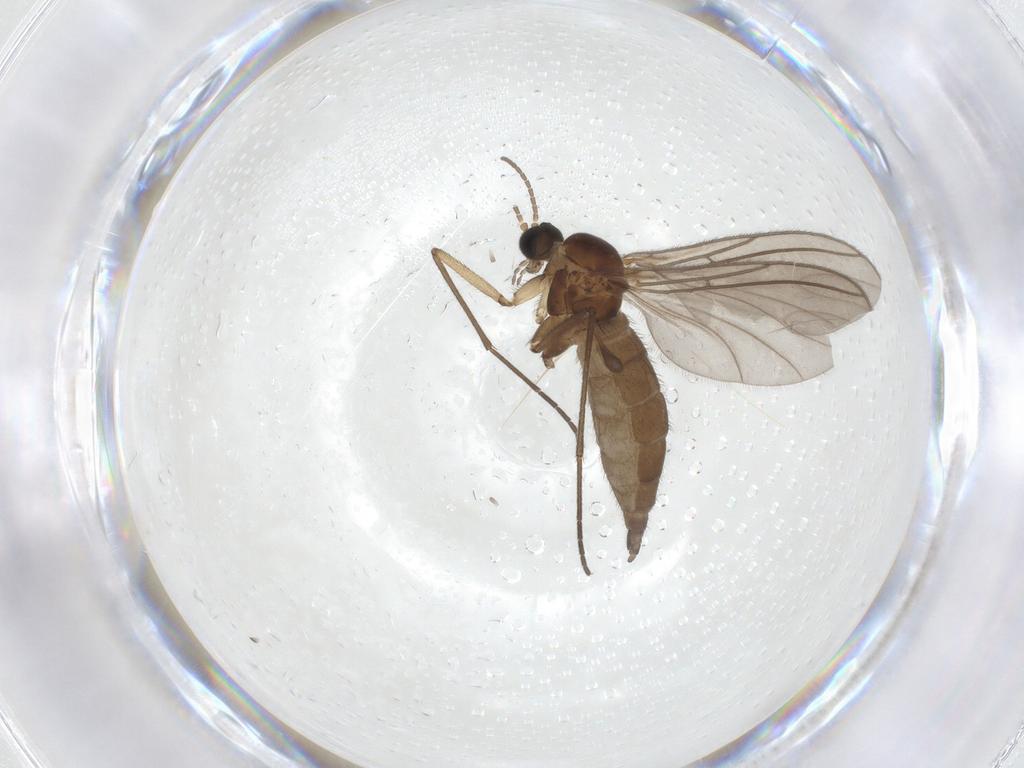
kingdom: Animalia
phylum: Arthropoda
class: Insecta
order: Diptera
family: Sciaridae
